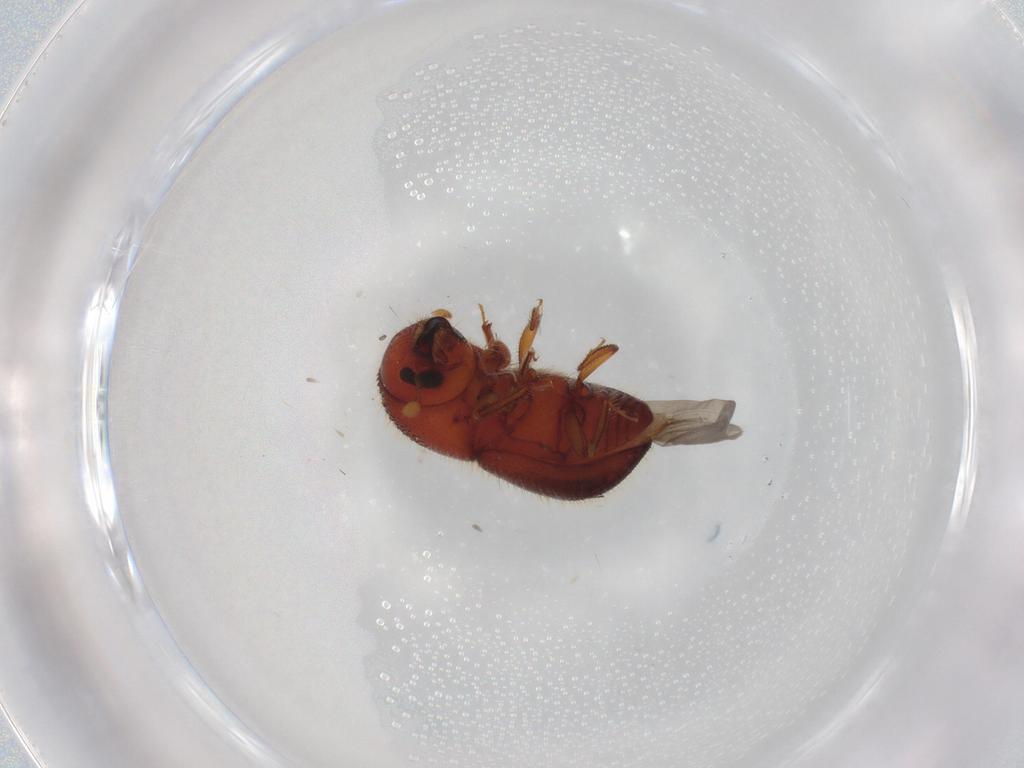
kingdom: Animalia
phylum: Arthropoda
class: Insecta
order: Coleoptera
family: Curculionidae
